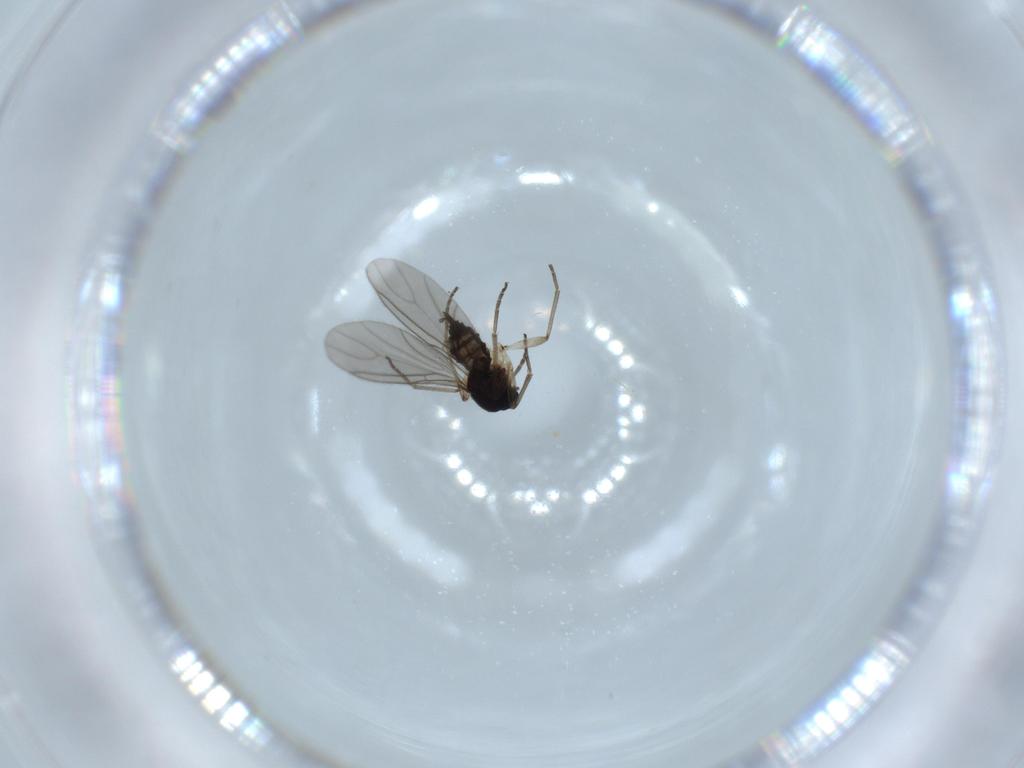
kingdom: Animalia
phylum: Arthropoda
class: Insecta
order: Diptera
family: Sciaridae
